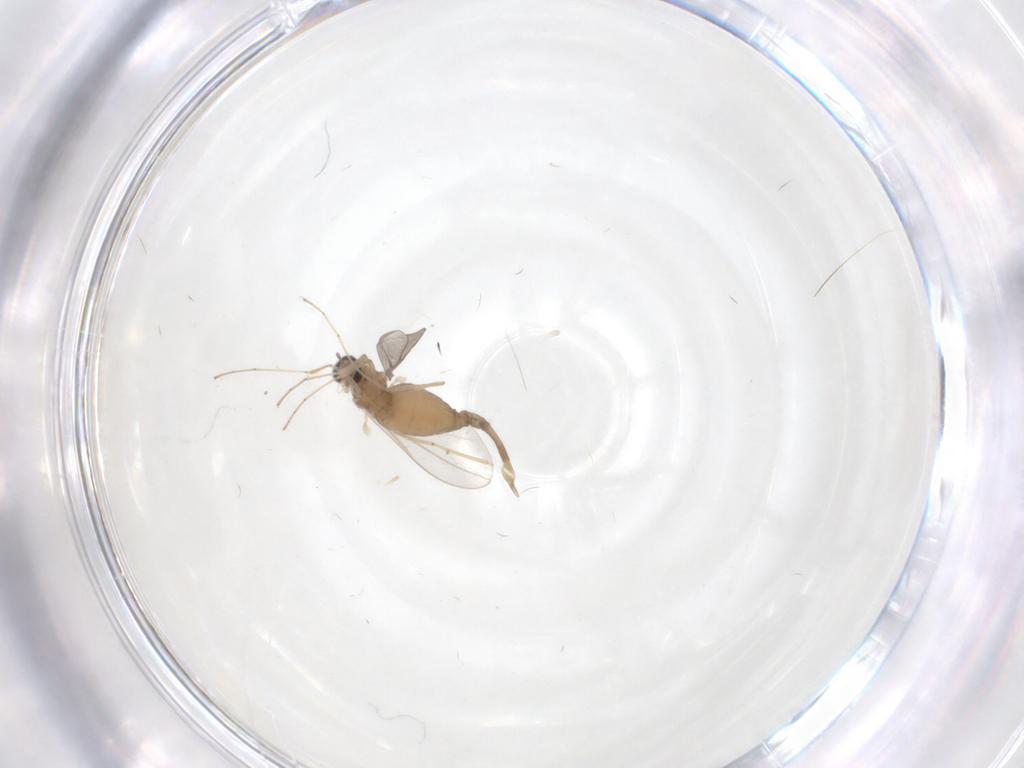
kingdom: Animalia
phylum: Arthropoda
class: Insecta
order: Diptera
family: Cecidomyiidae
